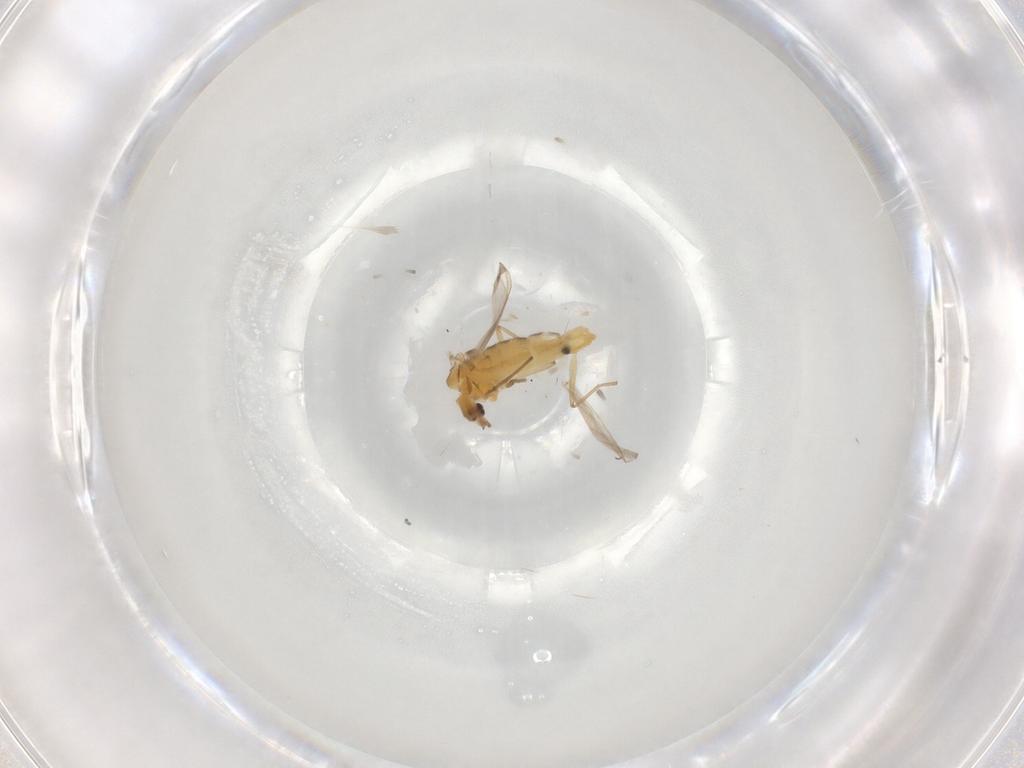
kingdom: Animalia
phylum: Arthropoda
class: Insecta
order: Diptera
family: Chironomidae
